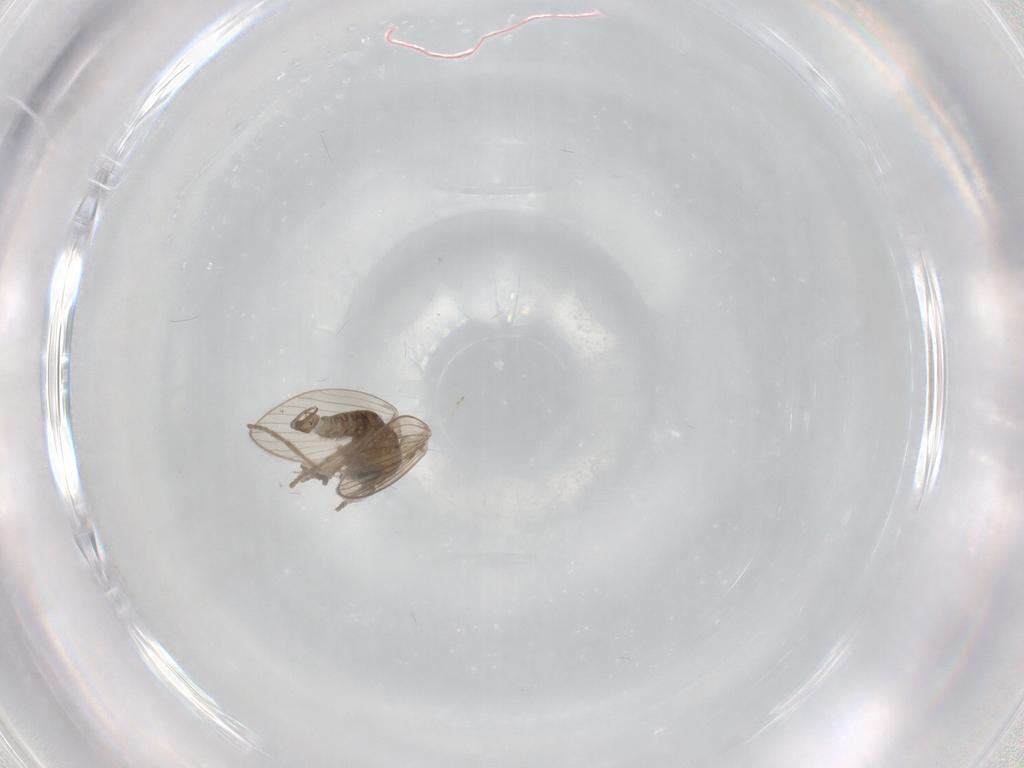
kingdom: Animalia
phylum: Arthropoda
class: Insecta
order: Diptera
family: Psychodidae
